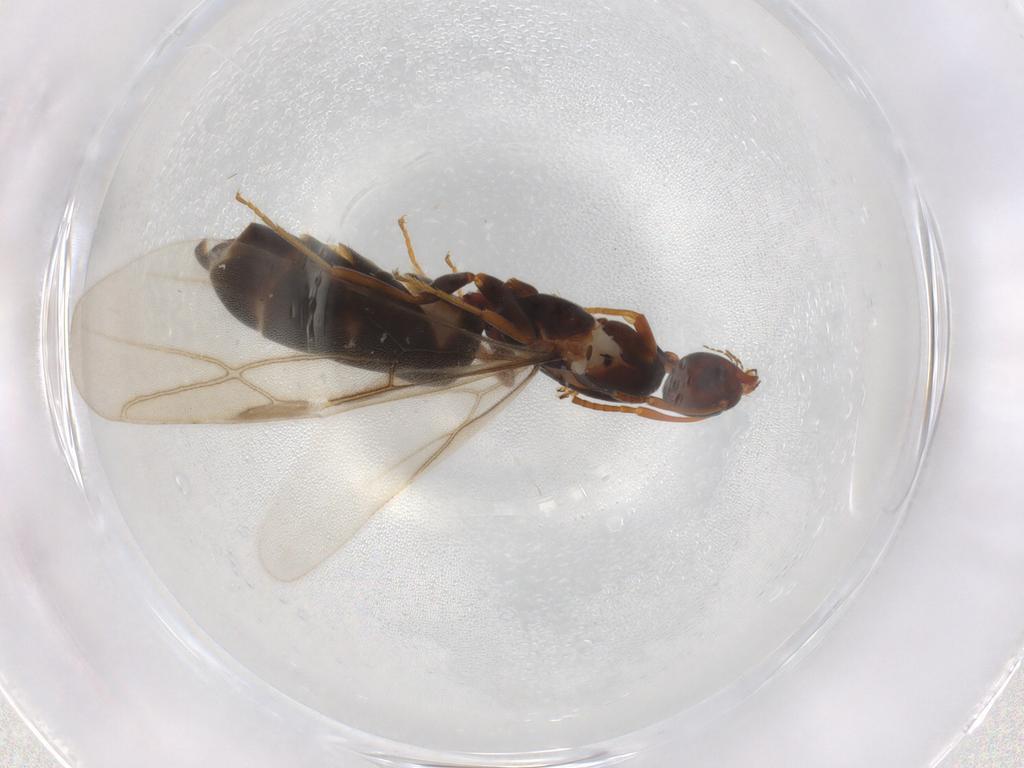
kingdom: Animalia
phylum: Arthropoda
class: Insecta
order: Hymenoptera
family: Formicidae
